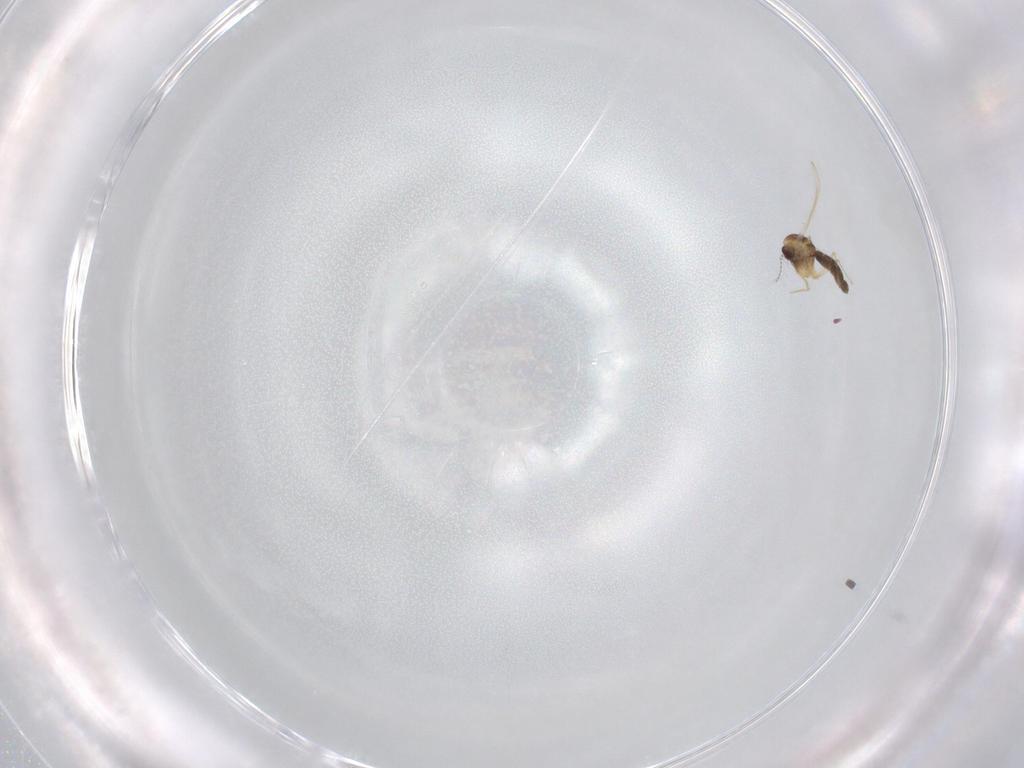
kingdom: Animalia
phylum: Arthropoda
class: Insecta
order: Diptera
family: Chironomidae
